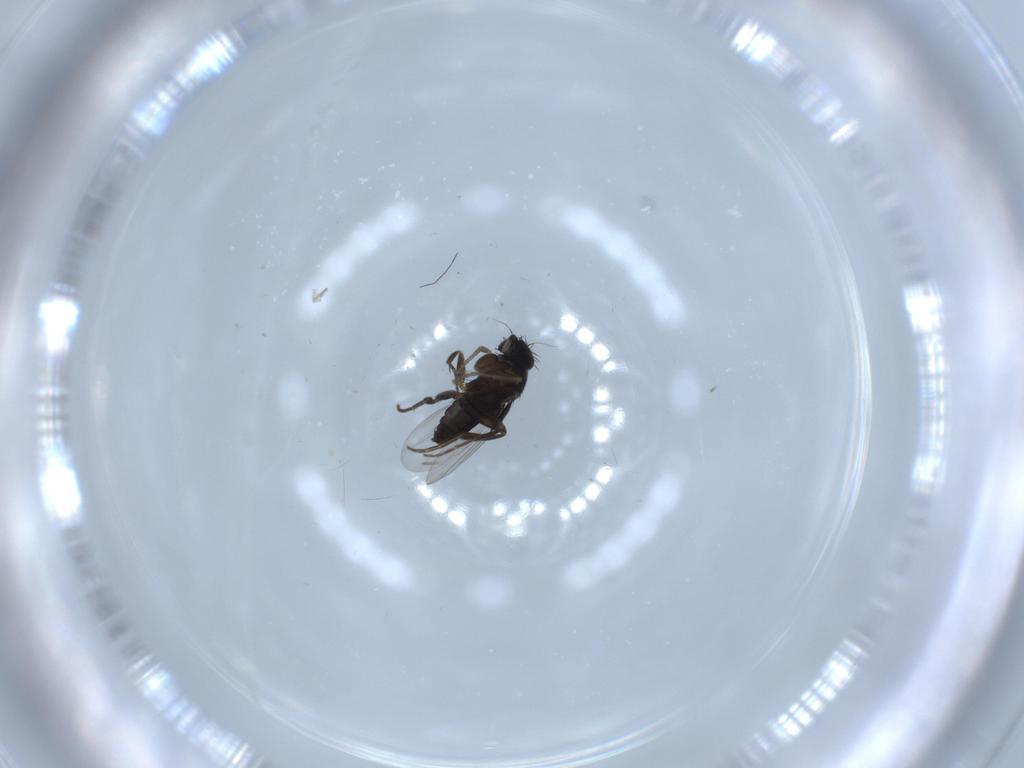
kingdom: Animalia
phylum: Arthropoda
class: Insecta
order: Diptera
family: Phoridae
